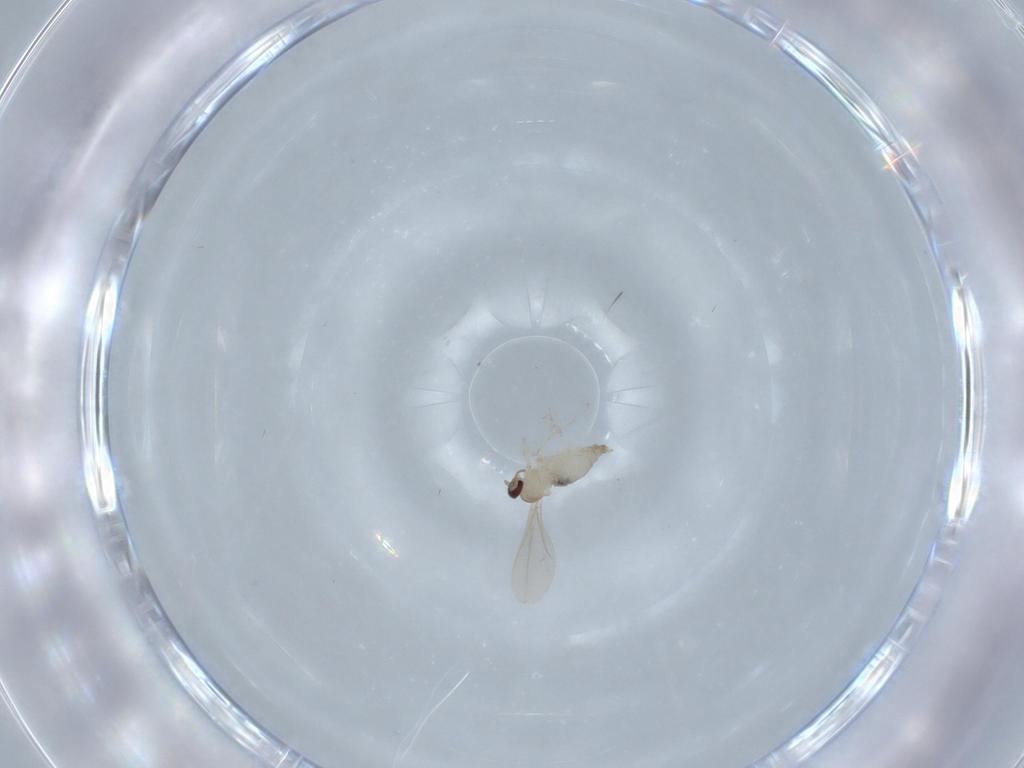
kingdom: Animalia
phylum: Arthropoda
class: Insecta
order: Diptera
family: Cecidomyiidae
